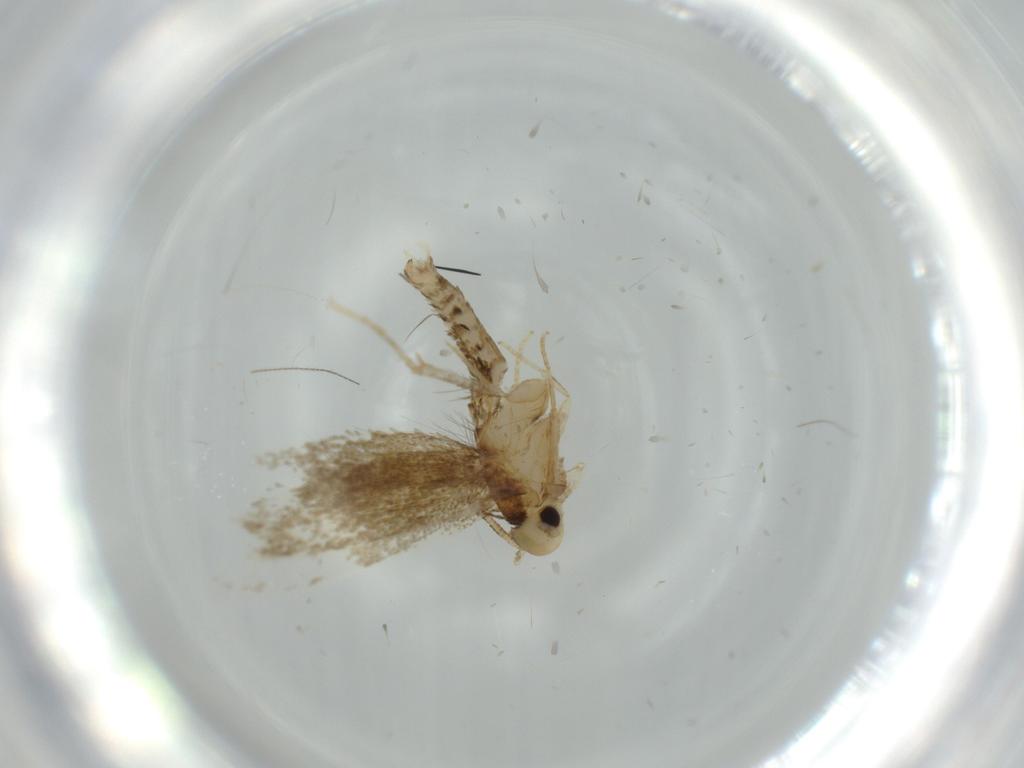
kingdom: Animalia
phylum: Arthropoda
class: Insecta
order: Lepidoptera
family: Tineidae
